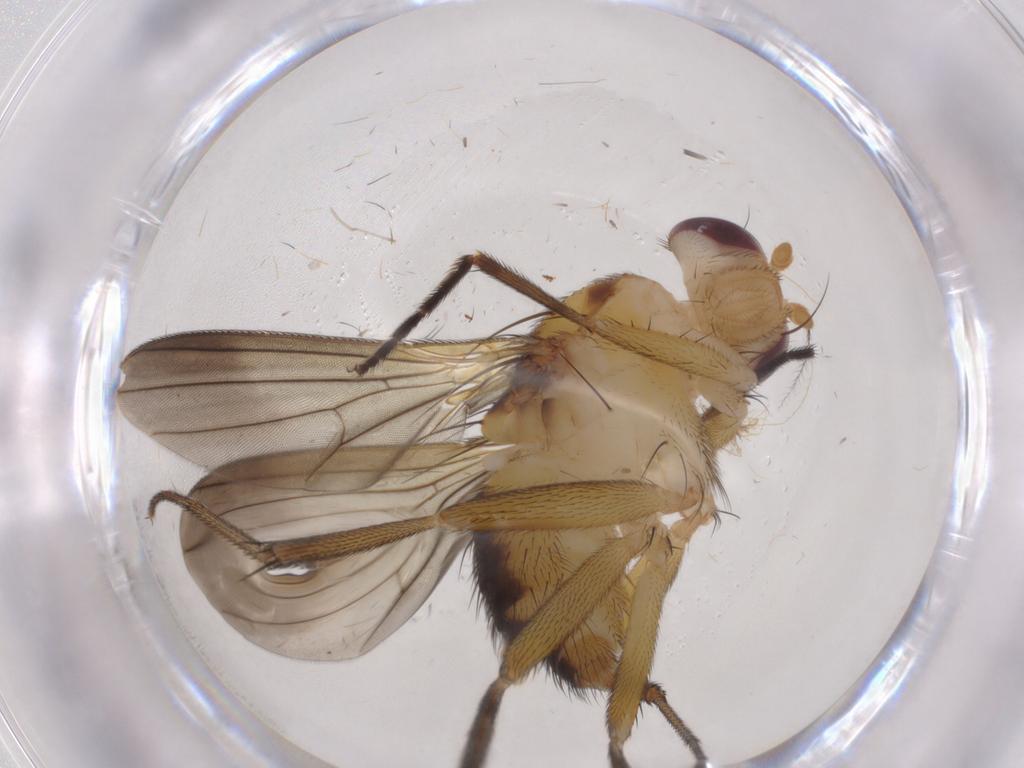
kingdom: Animalia
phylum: Arthropoda
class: Insecta
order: Diptera
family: Clusiidae
